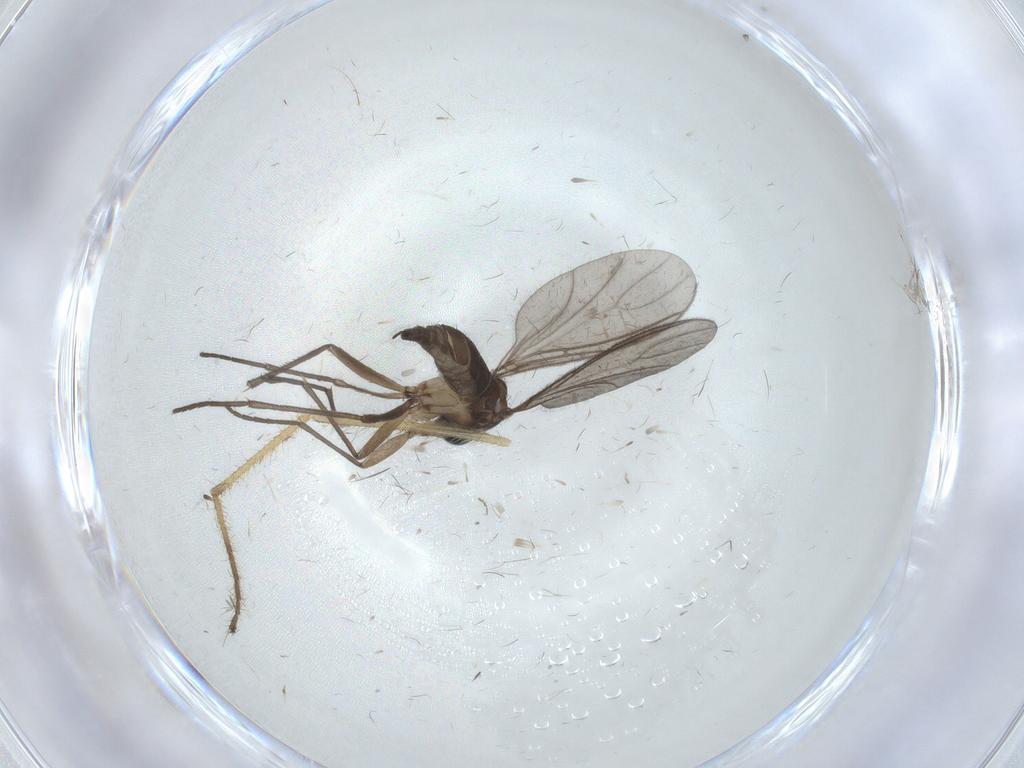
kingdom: Animalia
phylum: Arthropoda
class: Insecta
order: Diptera
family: Sciaridae
